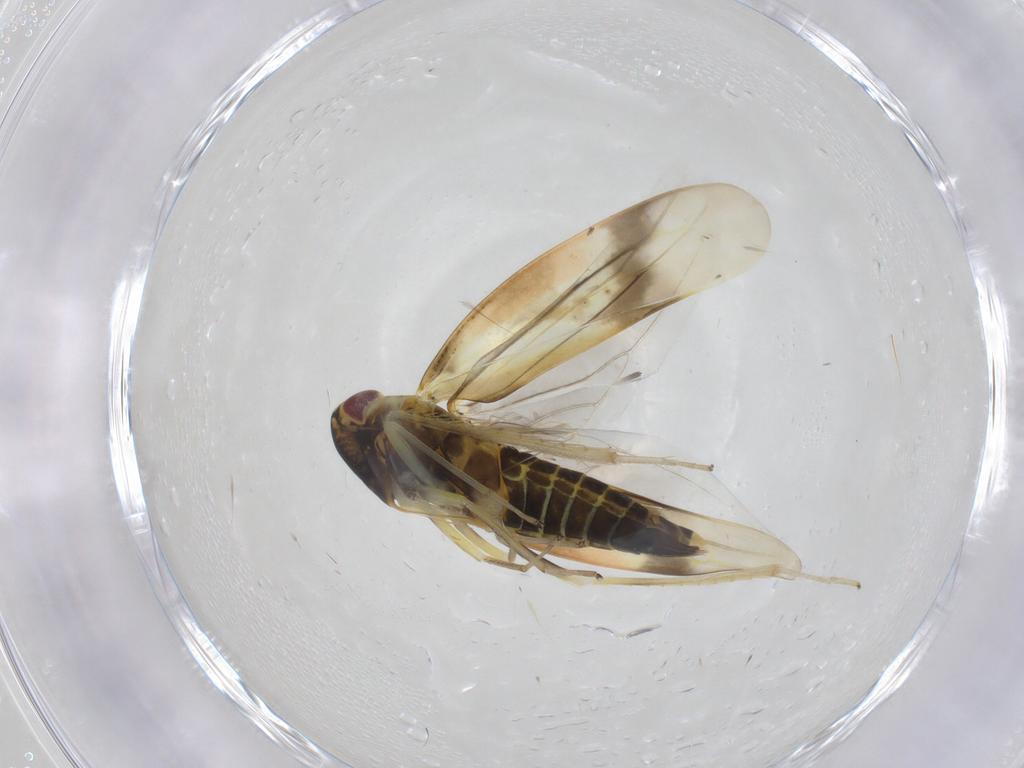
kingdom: Animalia
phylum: Arthropoda
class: Insecta
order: Hemiptera
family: Cicadellidae
